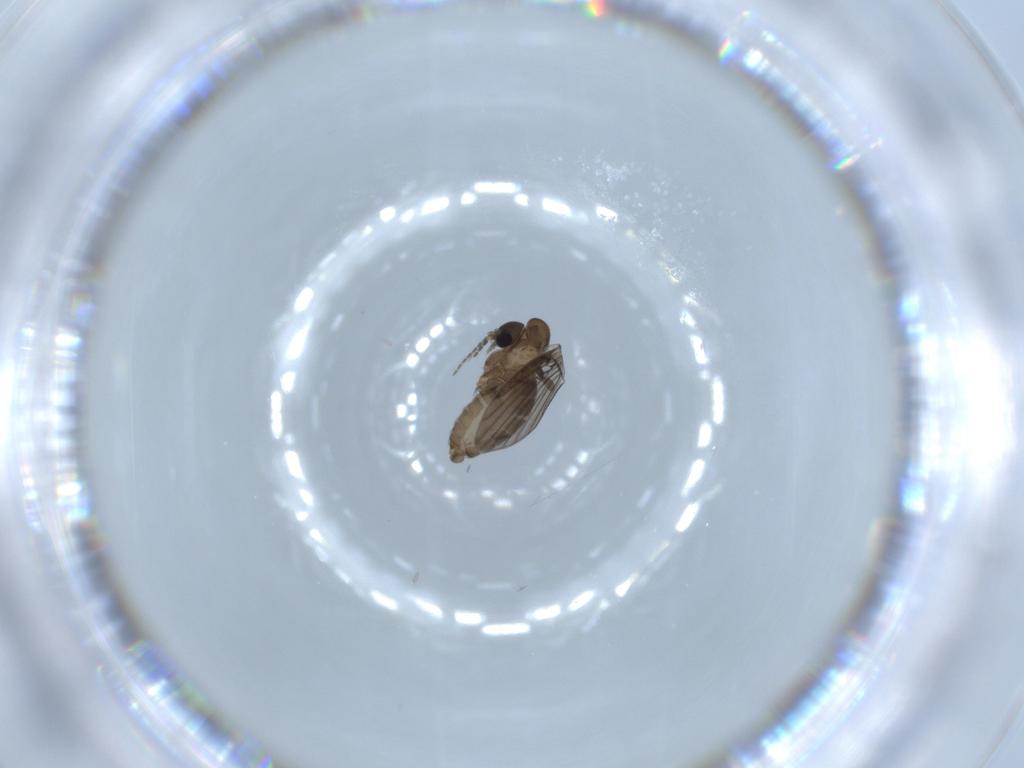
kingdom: Animalia
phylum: Arthropoda
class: Insecta
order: Diptera
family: Psychodidae
